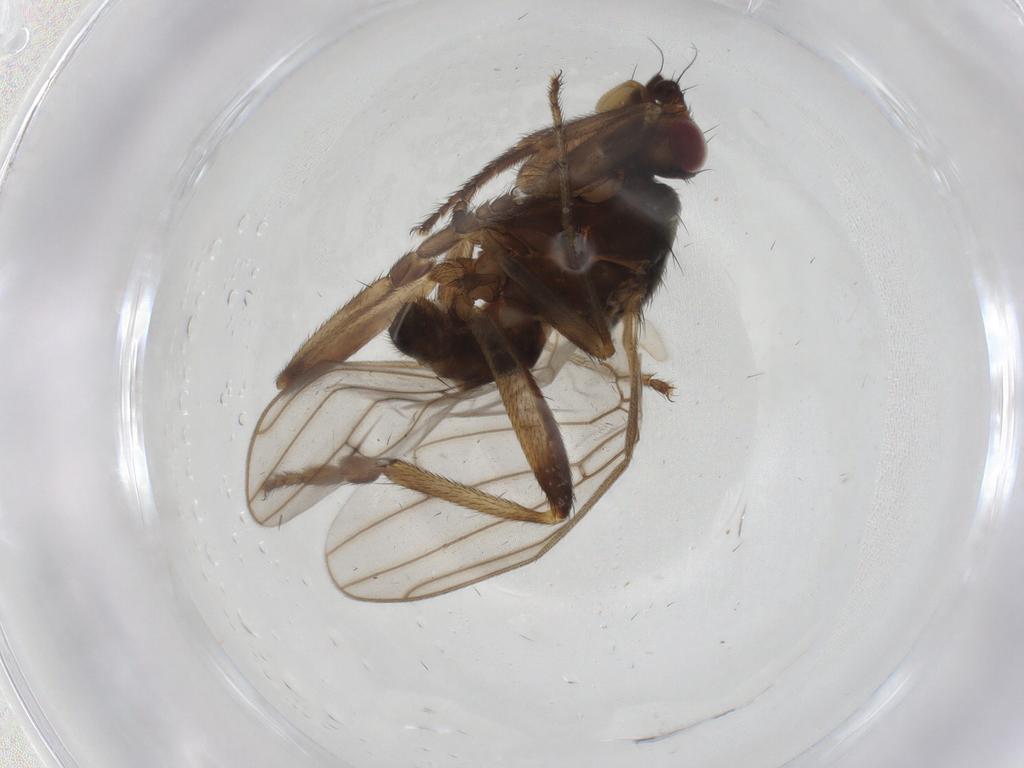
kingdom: Animalia
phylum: Arthropoda
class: Insecta
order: Diptera
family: Sphaeroceridae
